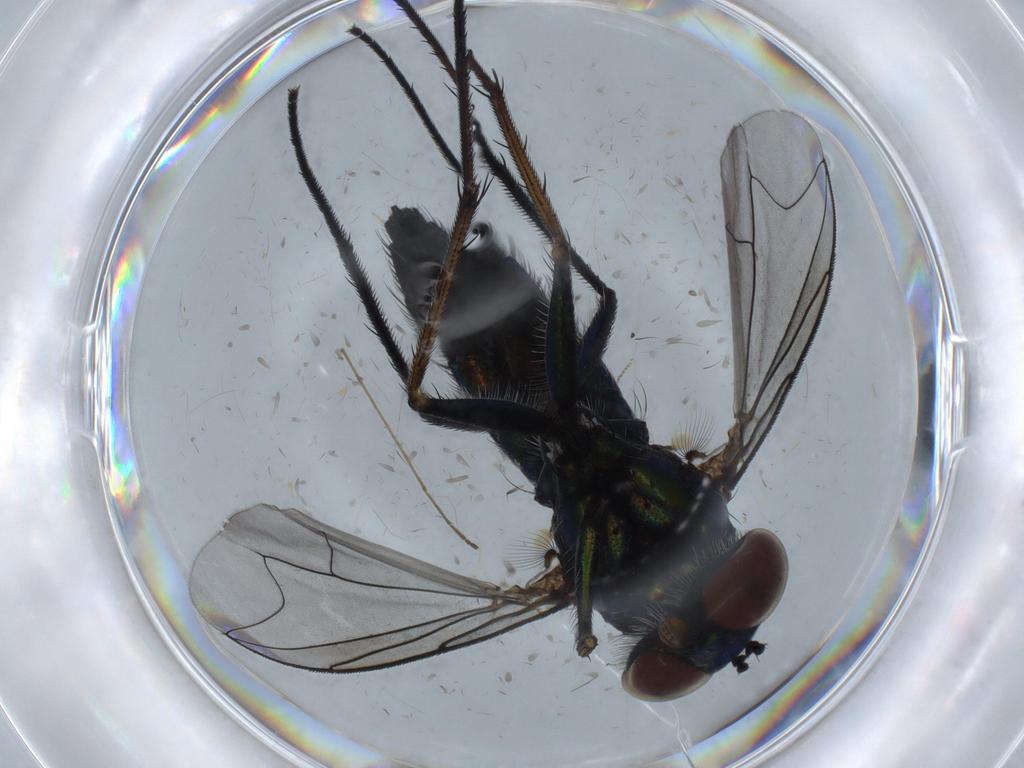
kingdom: Animalia
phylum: Arthropoda
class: Insecta
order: Diptera
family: Dolichopodidae
